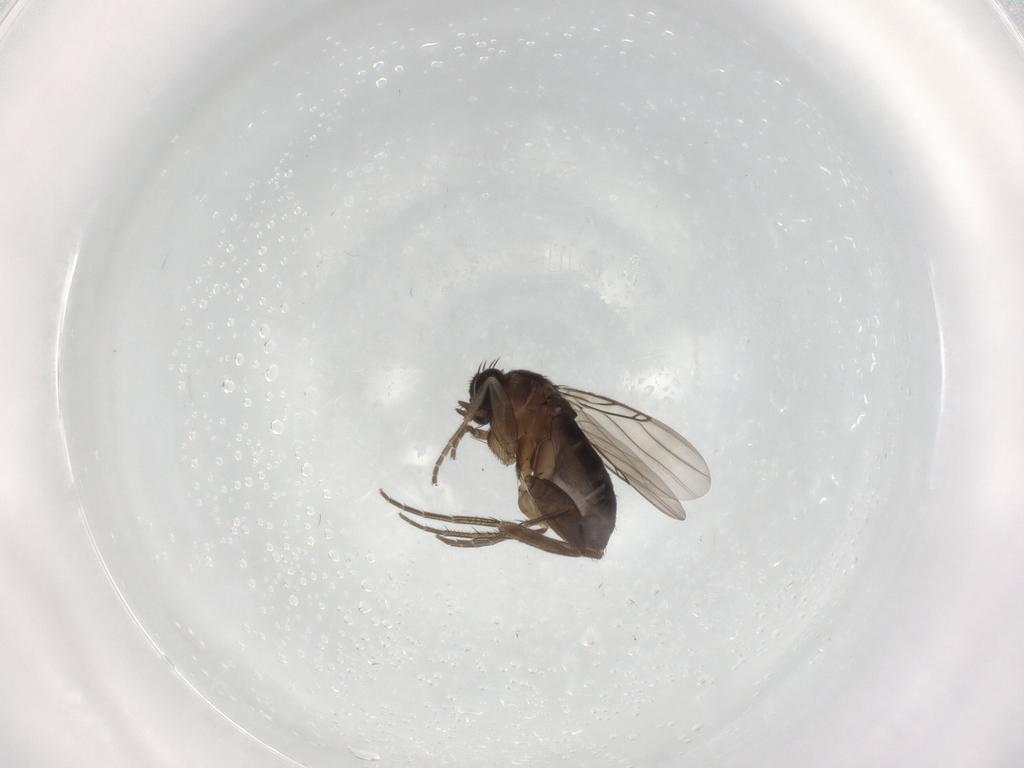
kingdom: Animalia
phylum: Arthropoda
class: Insecta
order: Diptera
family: Phoridae
